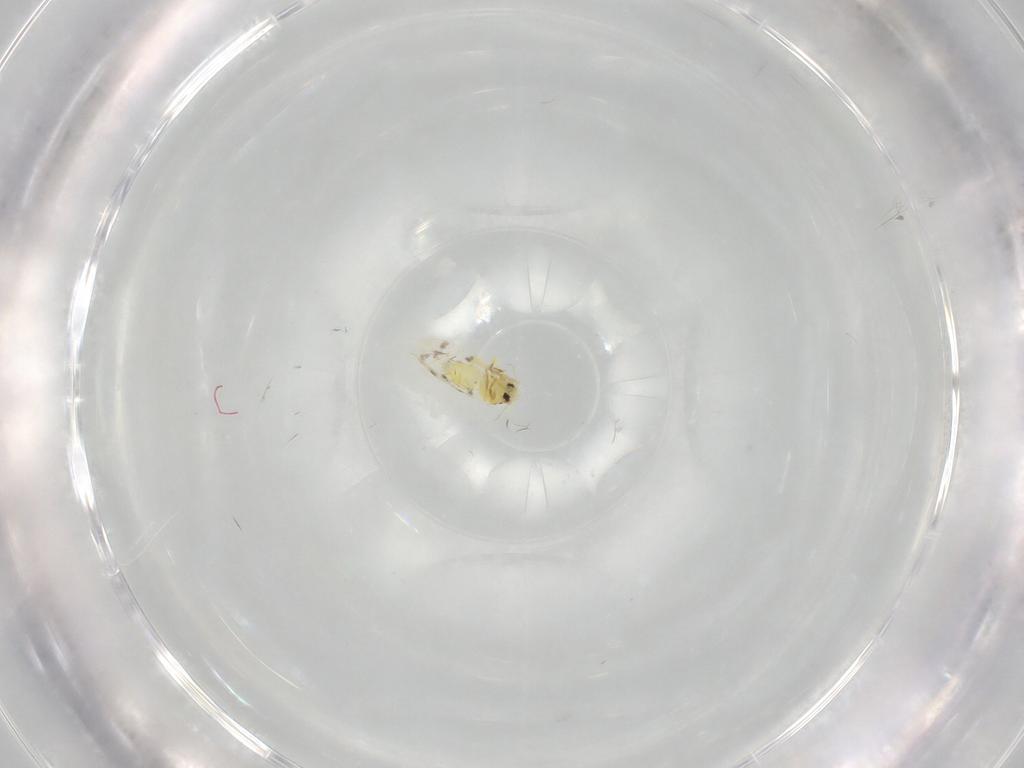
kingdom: Animalia
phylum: Arthropoda
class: Insecta
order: Hemiptera
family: Aleyrodidae
